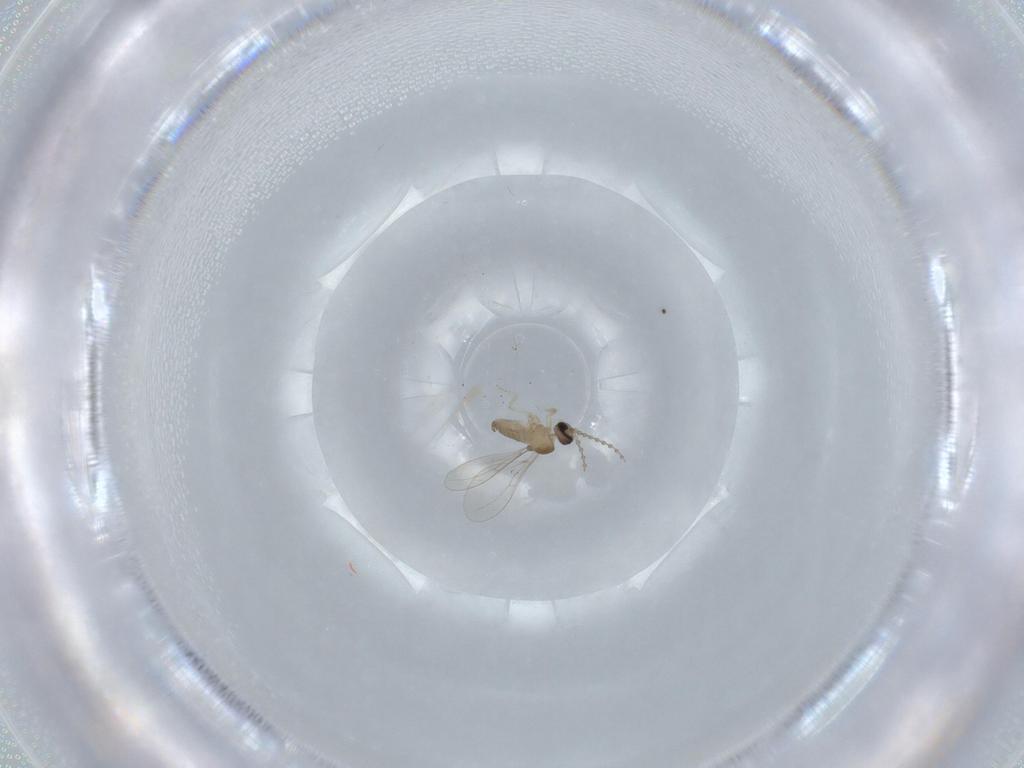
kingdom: Animalia
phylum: Arthropoda
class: Insecta
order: Diptera
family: Cecidomyiidae
